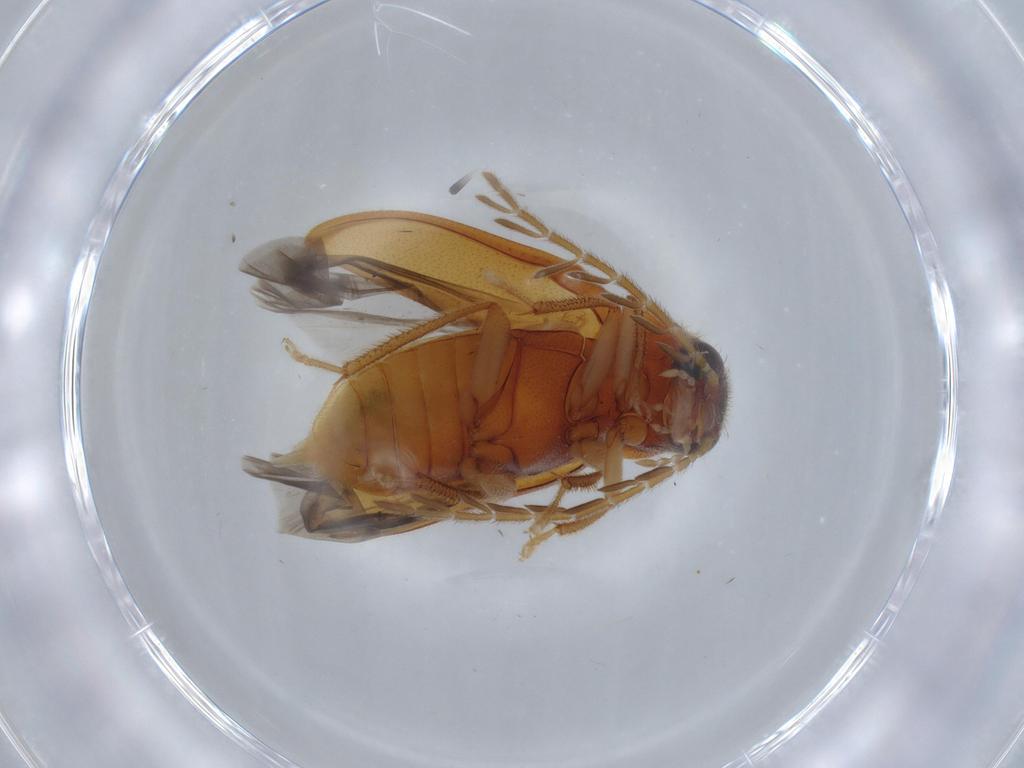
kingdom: Animalia
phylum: Arthropoda
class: Insecta
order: Coleoptera
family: Ptilodactylidae
